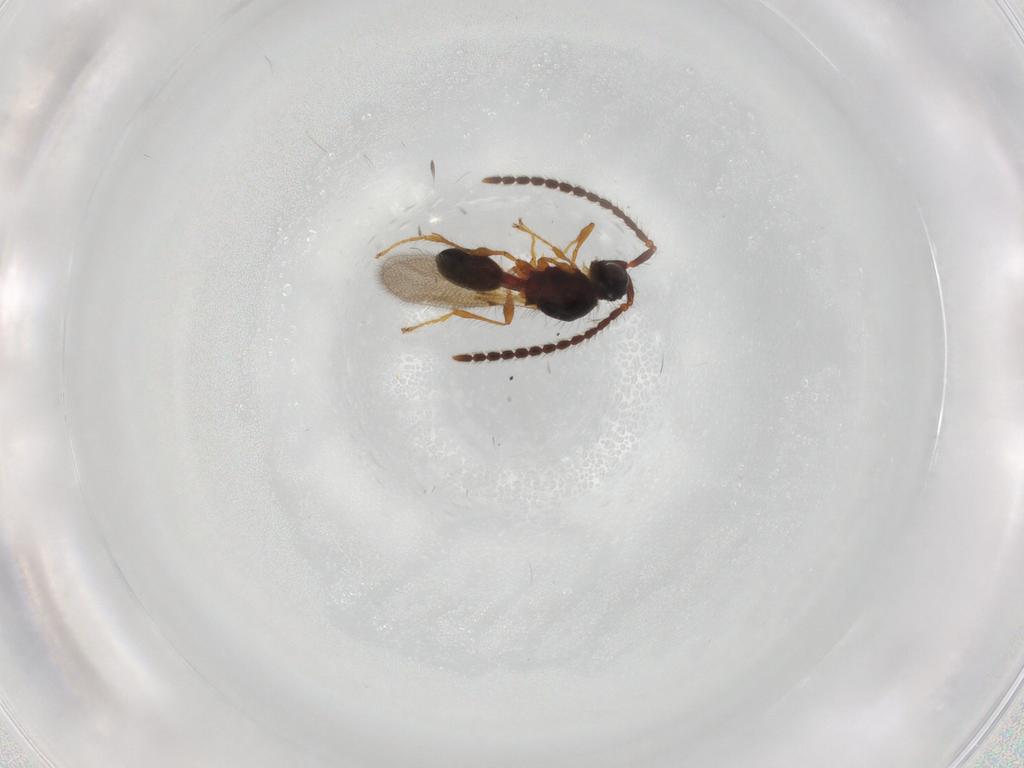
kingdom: Animalia
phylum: Arthropoda
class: Insecta
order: Hymenoptera
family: Diapriidae
